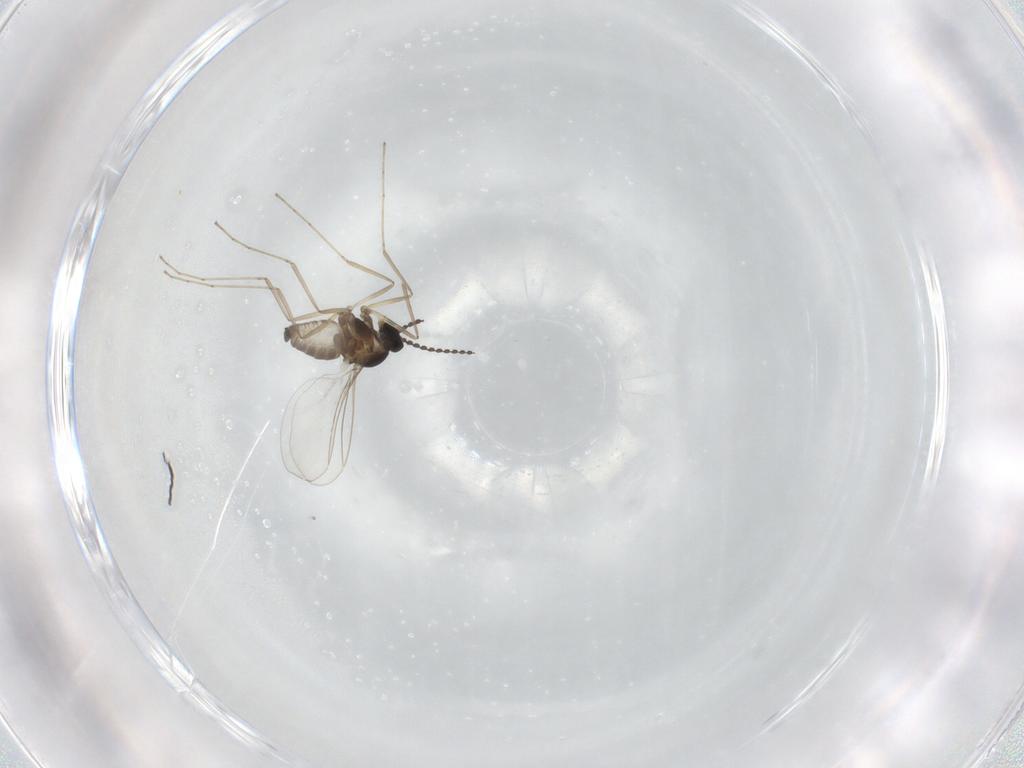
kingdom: Animalia
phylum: Arthropoda
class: Insecta
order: Diptera
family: Cecidomyiidae
